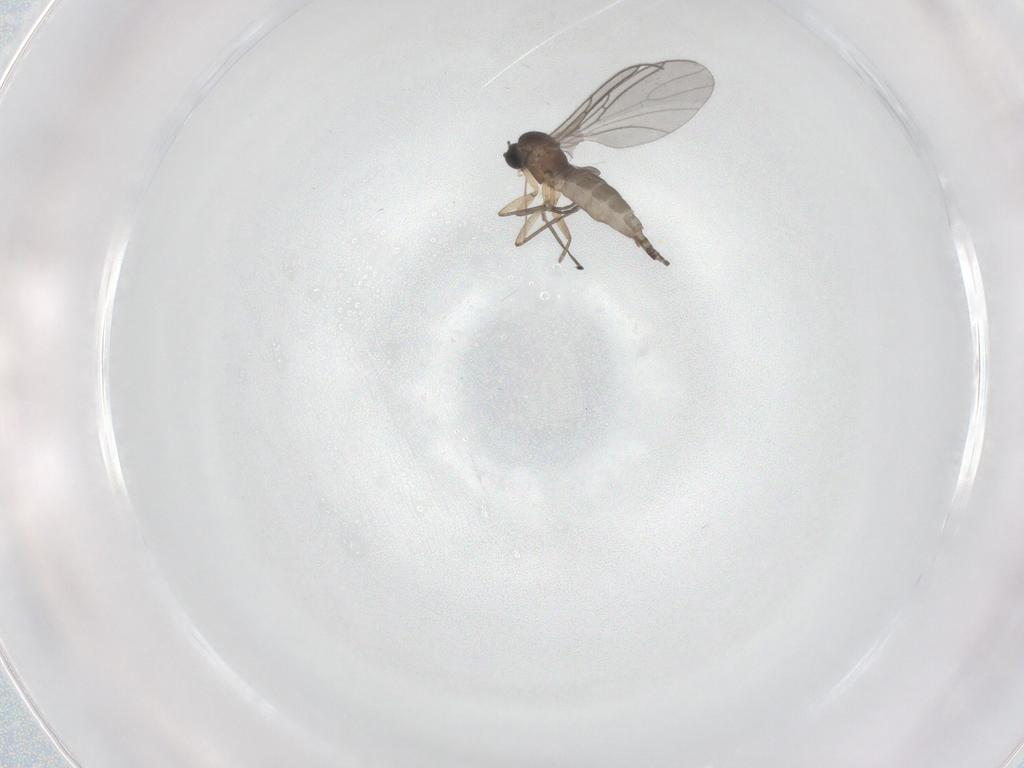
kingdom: Animalia
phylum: Arthropoda
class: Insecta
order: Diptera
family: Sciaridae
